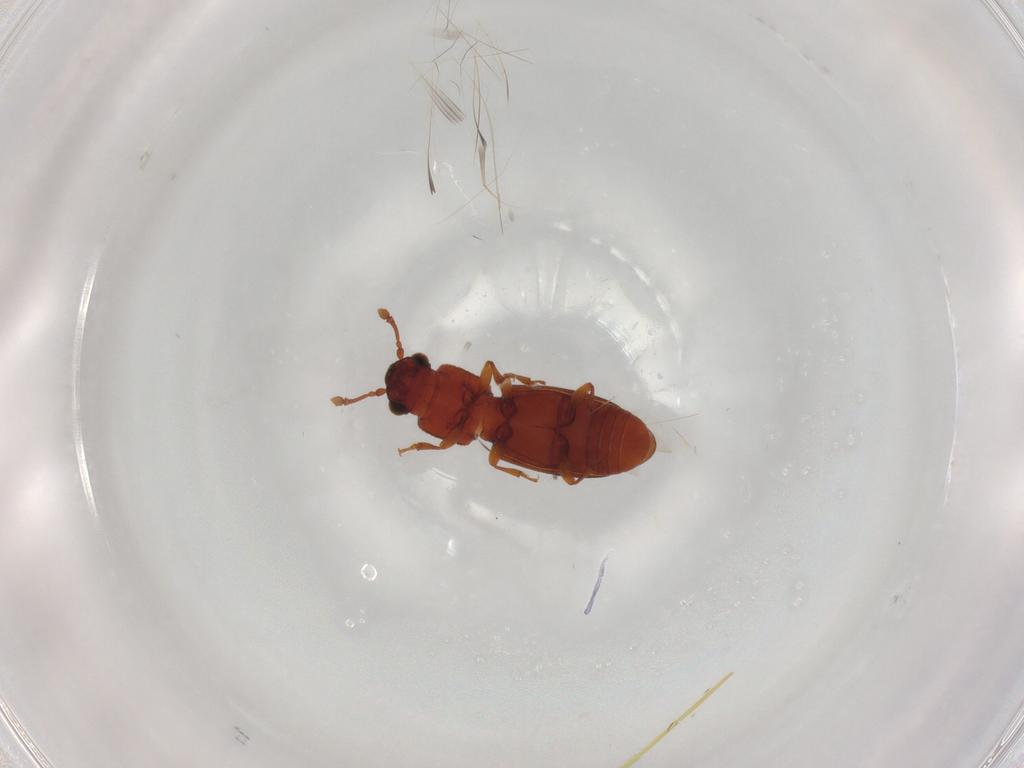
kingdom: Animalia
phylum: Arthropoda
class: Insecta
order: Coleoptera
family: Monotomidae
